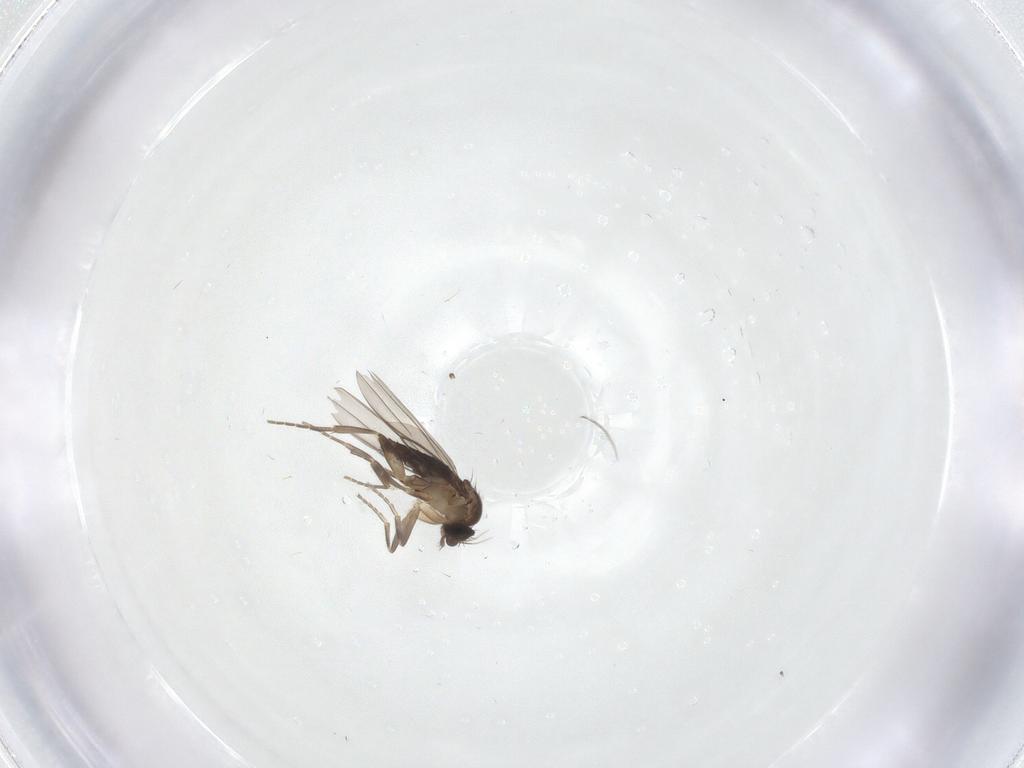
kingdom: Animalia
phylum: Arthropoda
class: Insecta
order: Diptera
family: Phoridae
